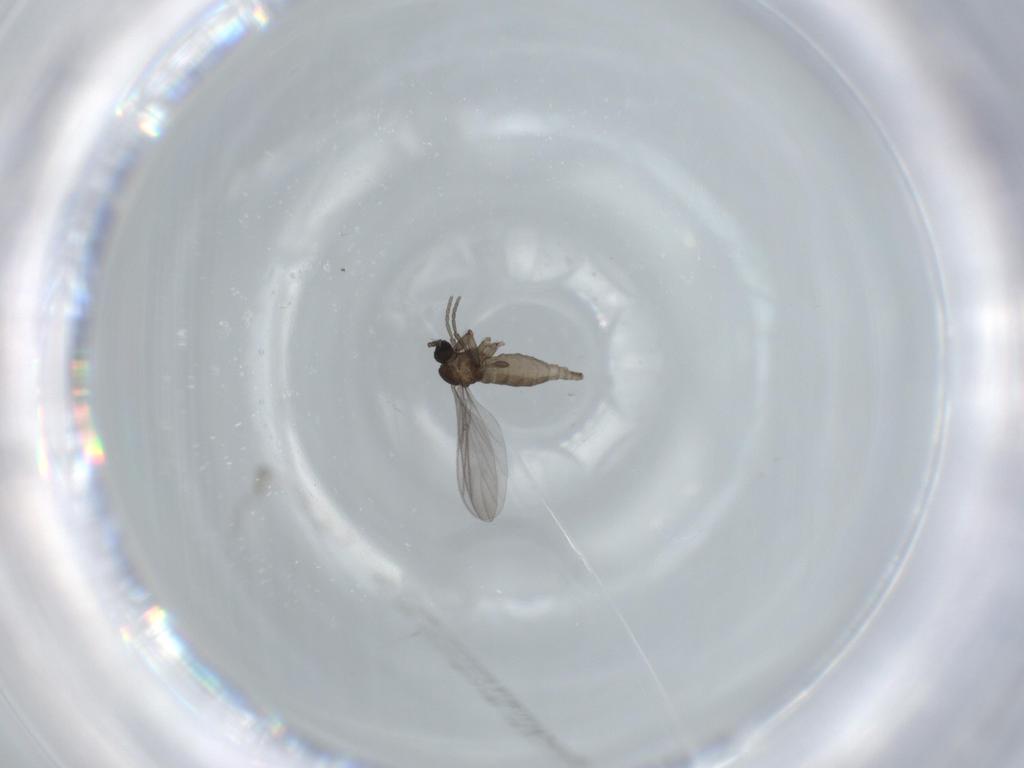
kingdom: Animalia
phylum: Arthropoda
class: Insecta
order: Diptera
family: Sciaridae
